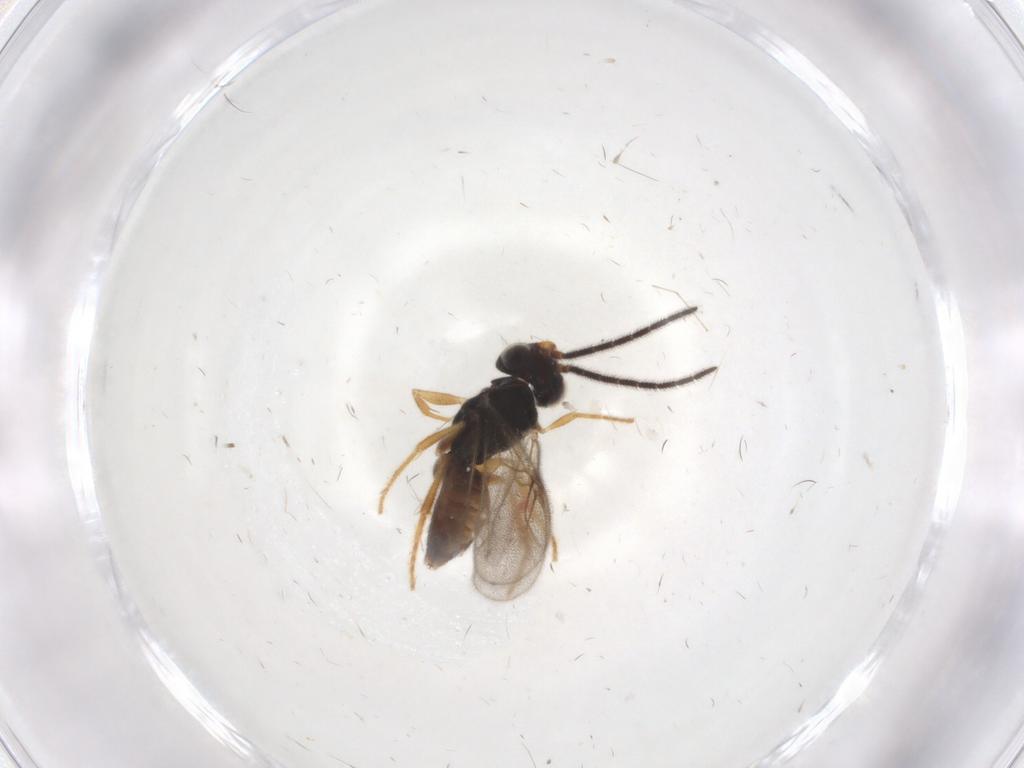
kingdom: Animalia
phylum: Arthropoda
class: Insecta
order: Hymenoptera
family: Dryinidae
